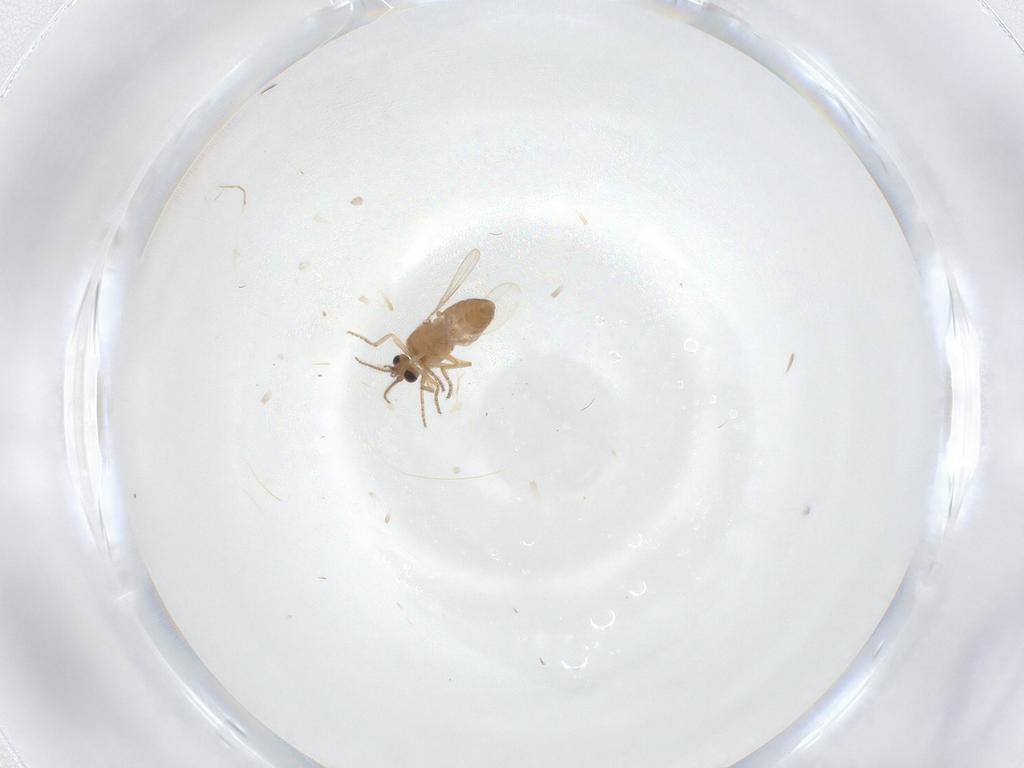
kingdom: Animalia
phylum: Arthropoda
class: Insecta
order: Diptera
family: Ceratopogonidae
